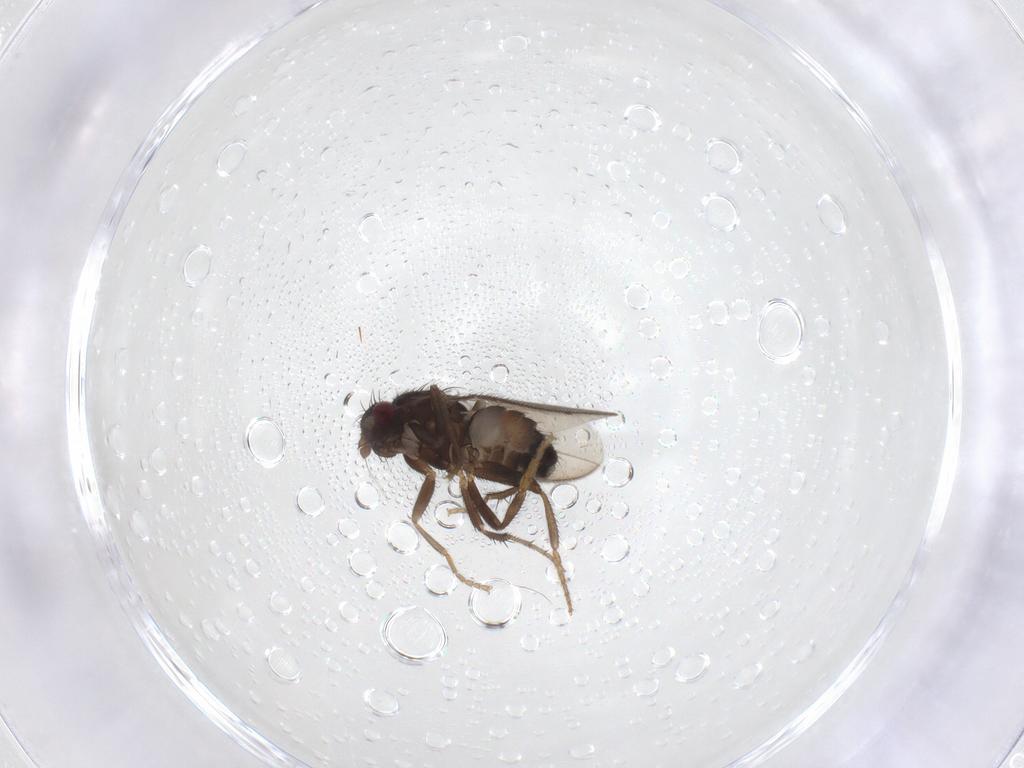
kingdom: Animalia
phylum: Arthropoda
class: Insecta
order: Diptera
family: Sphaeroceridae
